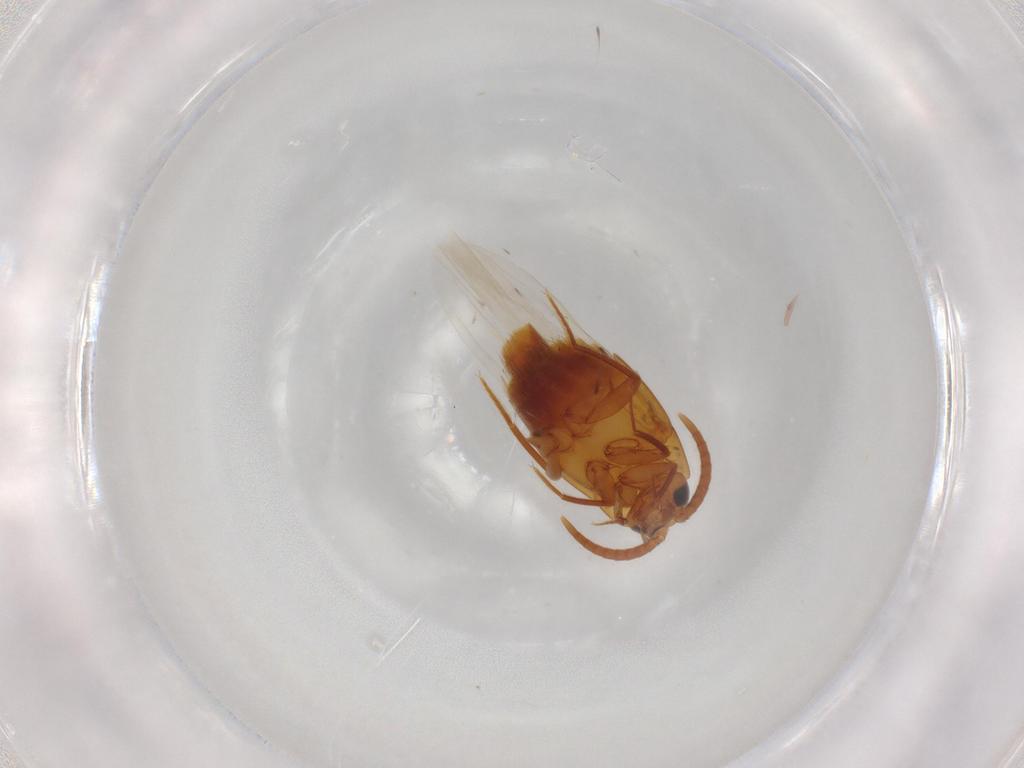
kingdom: Animalia
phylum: Arthropoda
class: Insecta
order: Coleoptera
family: Staphylinidae
